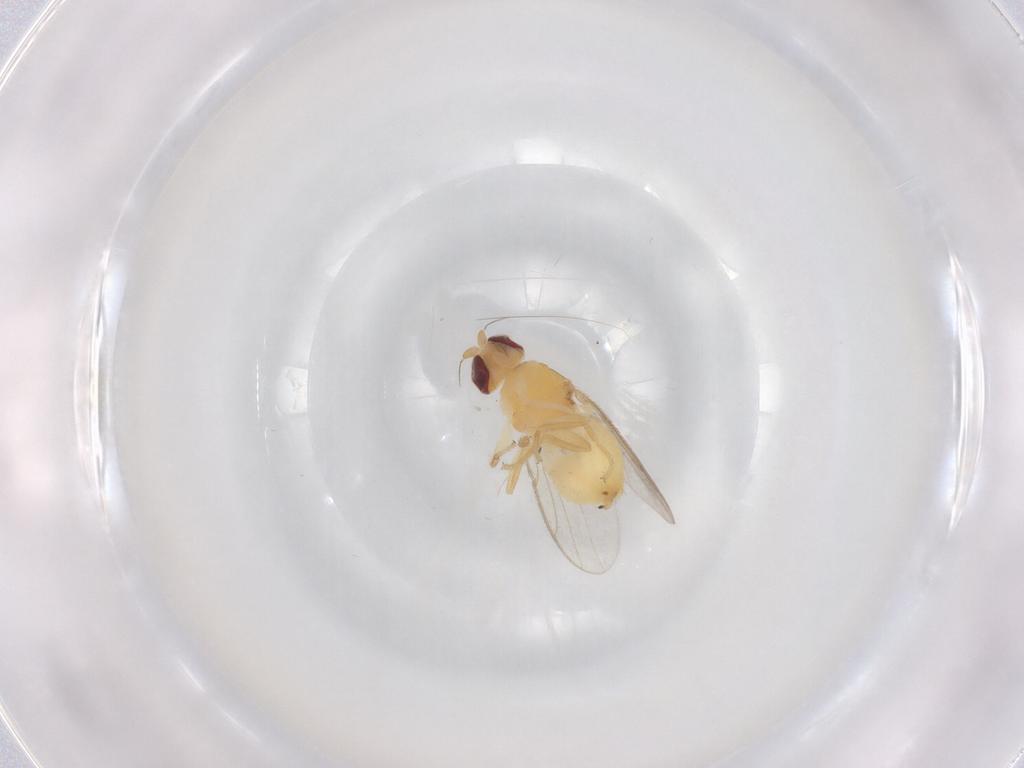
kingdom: Animalia
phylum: Arthropoda
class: Insecta
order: Diptera
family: Chloropidae
